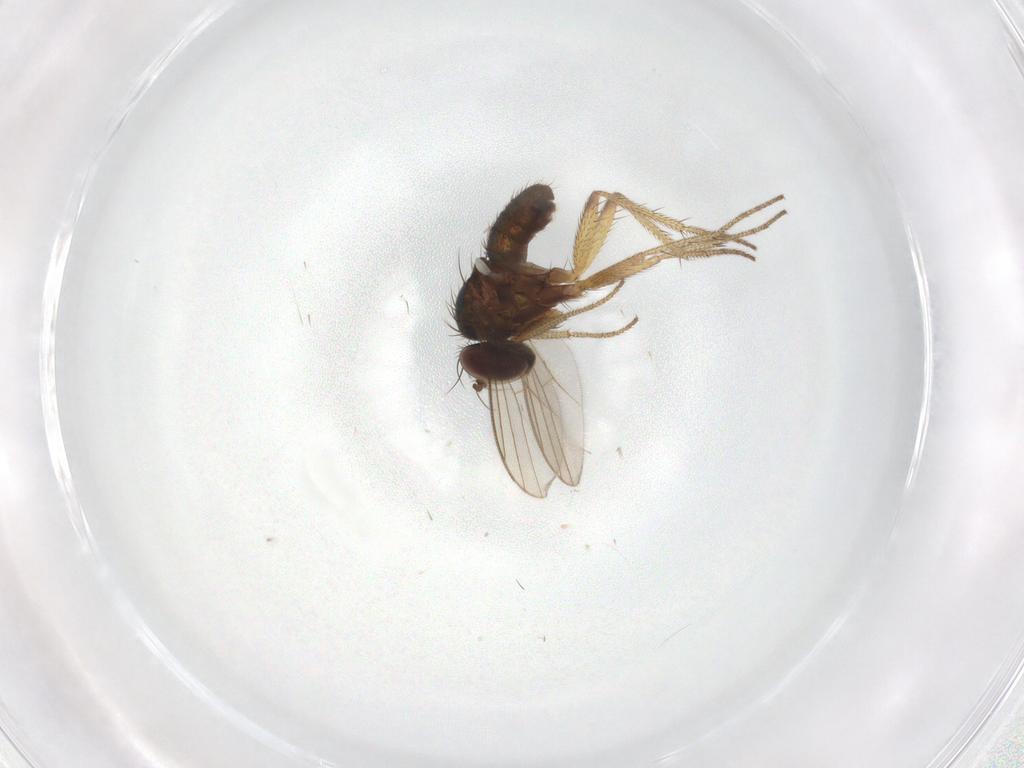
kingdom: Animalia
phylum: Arthropoda
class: Insecta
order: Diptera
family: Dolichopodidae
